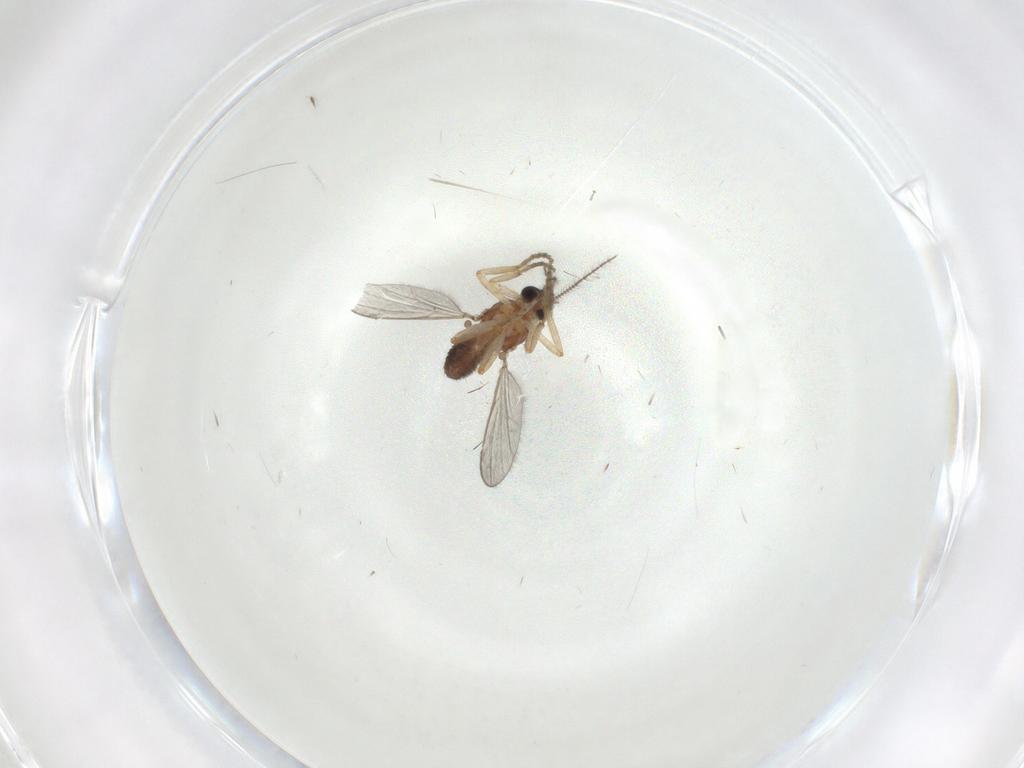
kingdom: Animalia
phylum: Arthropoda
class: Insecta
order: Diptera
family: Ceratopogonidae
